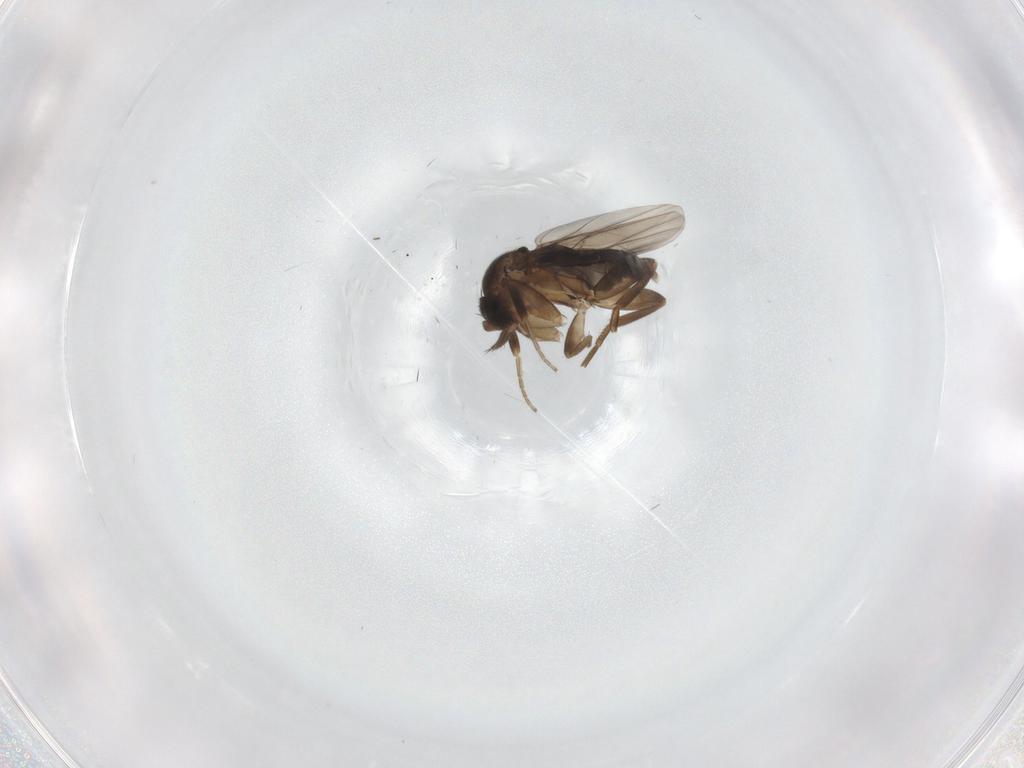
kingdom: Animalia
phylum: Arthropoda
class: Insecta
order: Diptera
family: Phoridae
